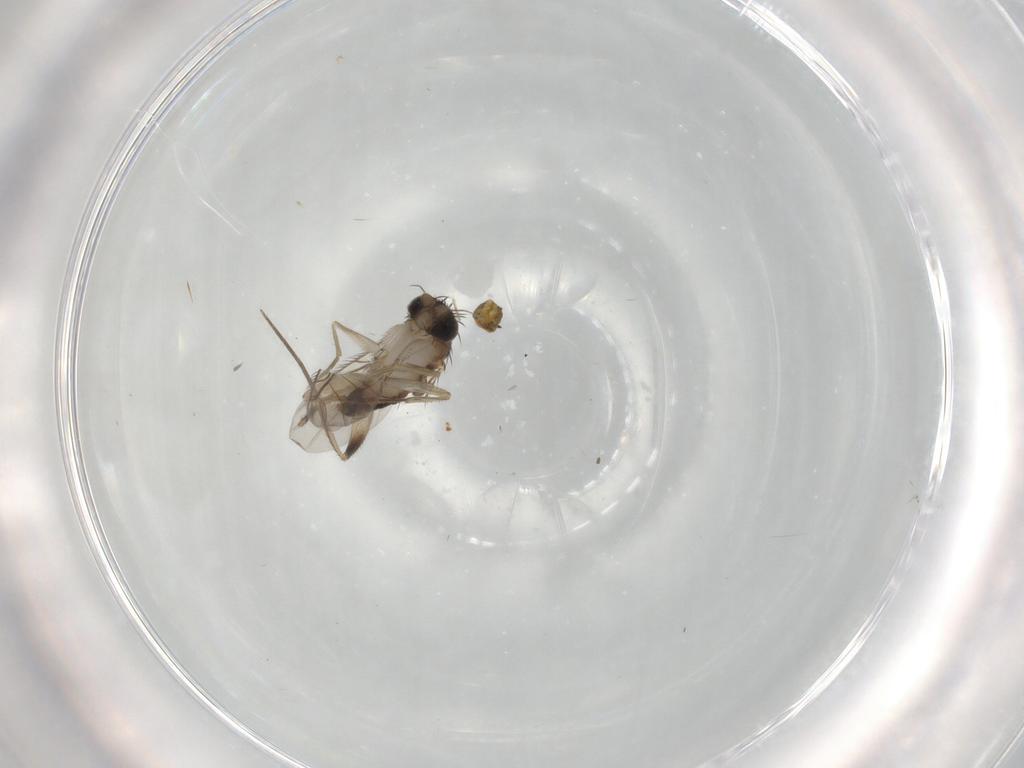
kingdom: Animalia
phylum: Arthropoda
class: Insecta
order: Diptera
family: Phoridae
